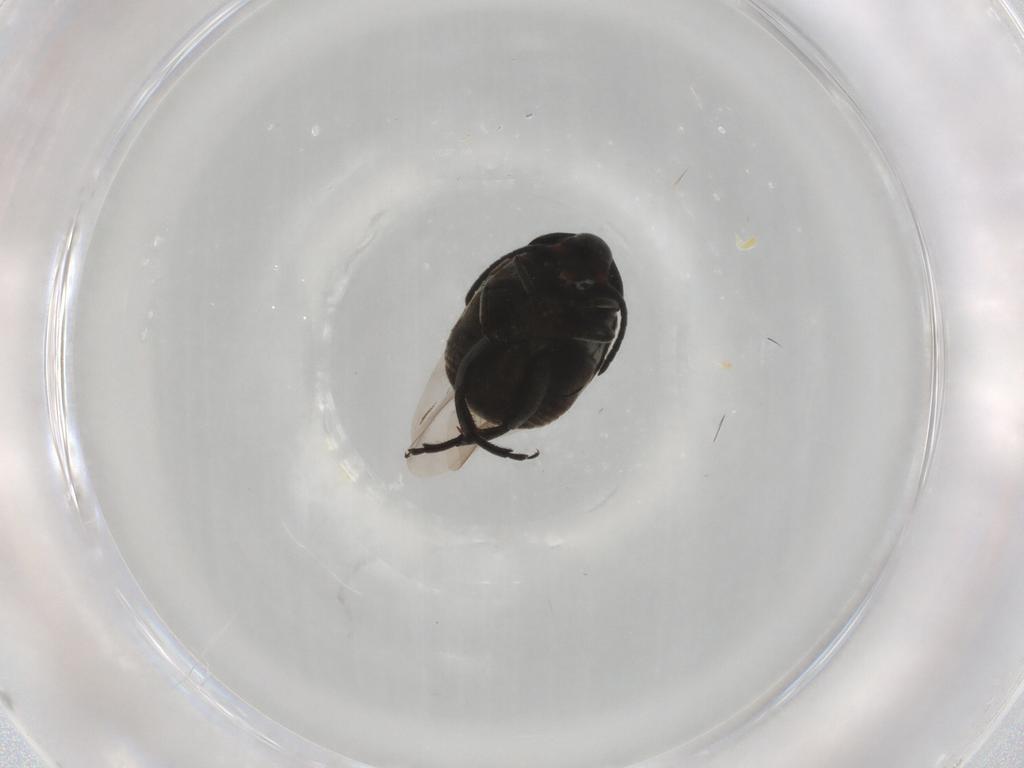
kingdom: Animalia
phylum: Arthropoda
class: Insecta
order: Coleoptera
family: Chrysomelidae
